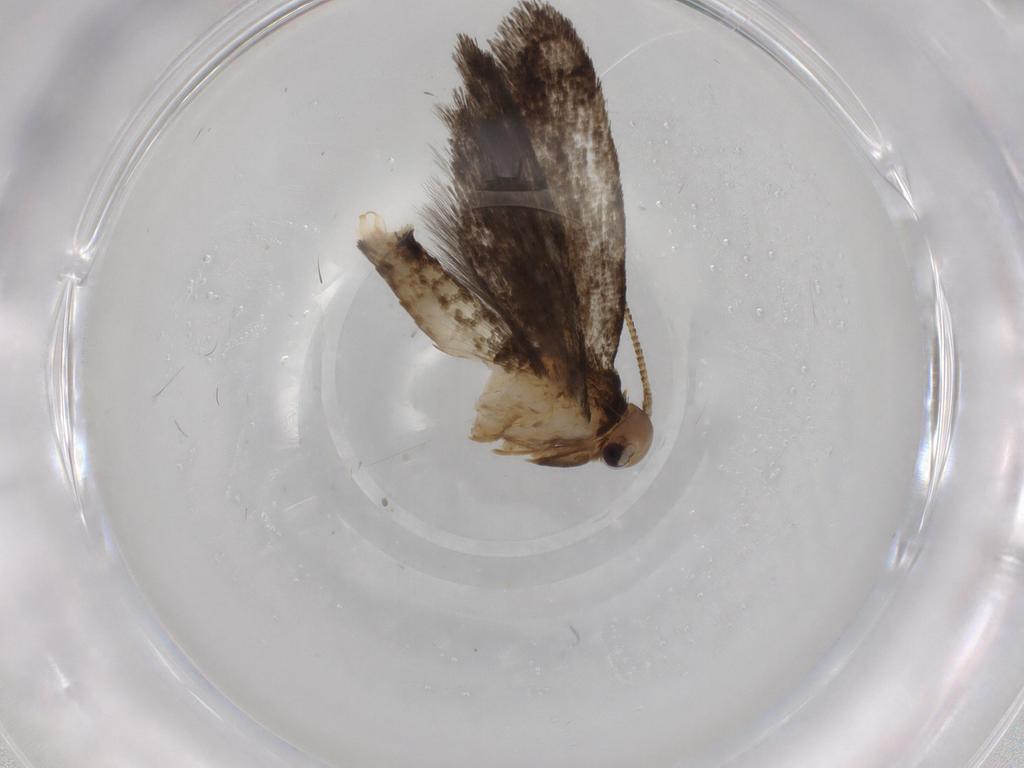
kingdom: Animalia
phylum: Arthropoda
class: Insecta
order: Lepidoptera
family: Tineidae
